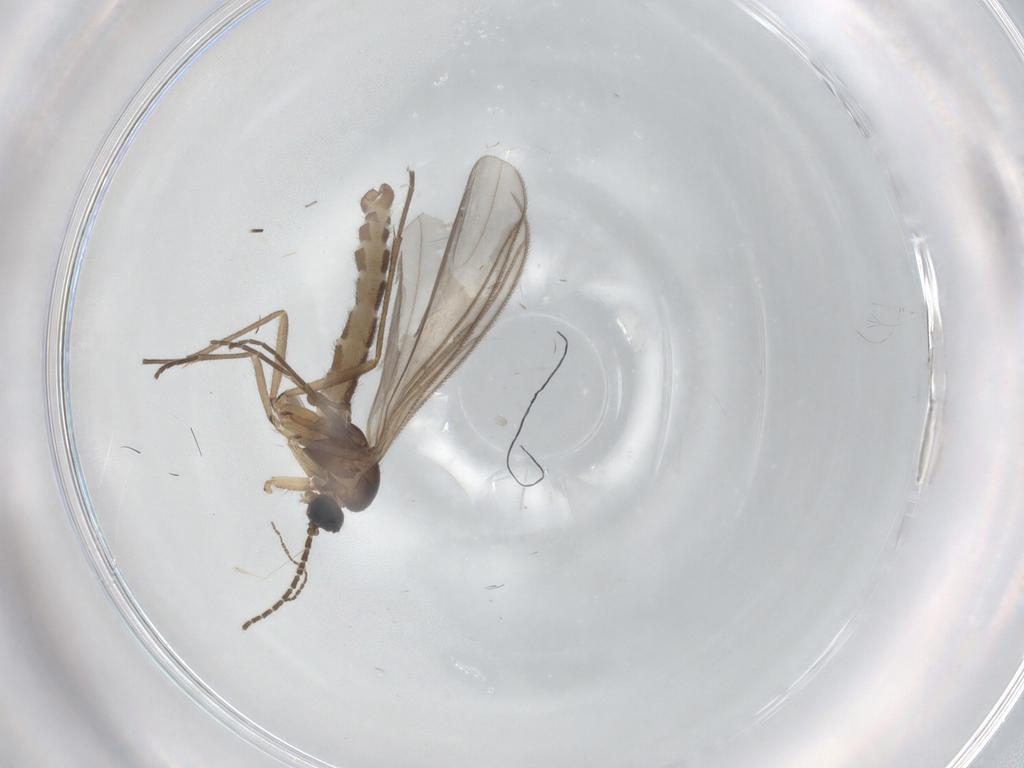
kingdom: Animalia
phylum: Arthropoda
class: Insecta
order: Diptera
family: Sciaridae
